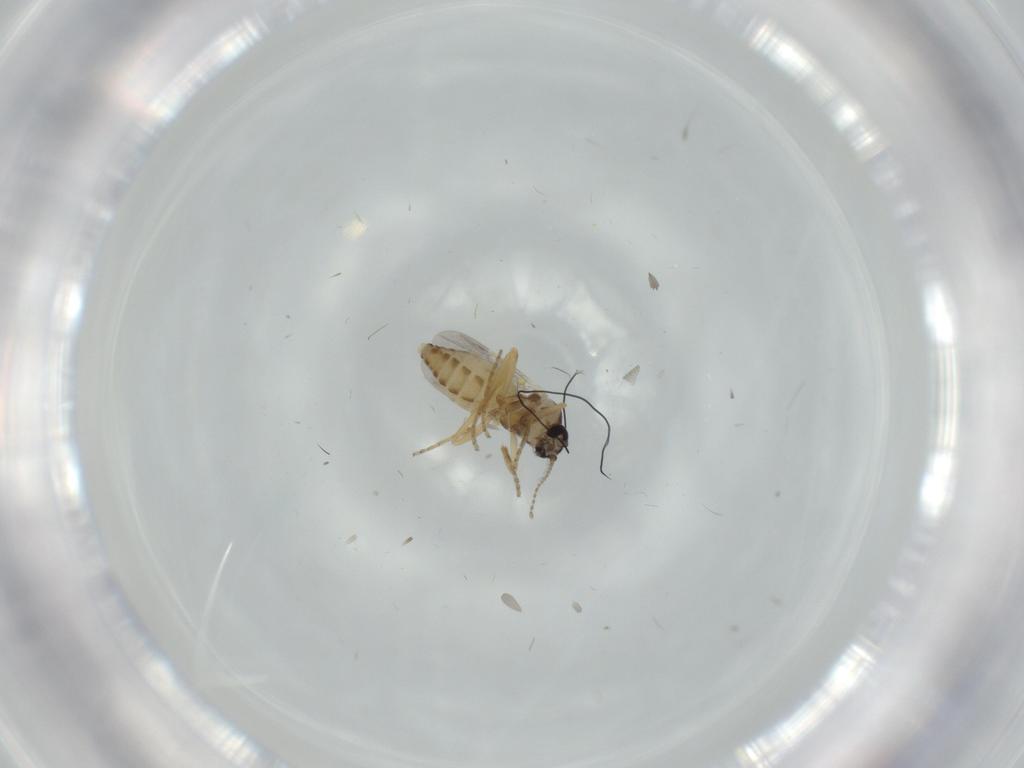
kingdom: Animalia
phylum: Arthropoda
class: Insecta
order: Diptera
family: Ceratopogonidae
